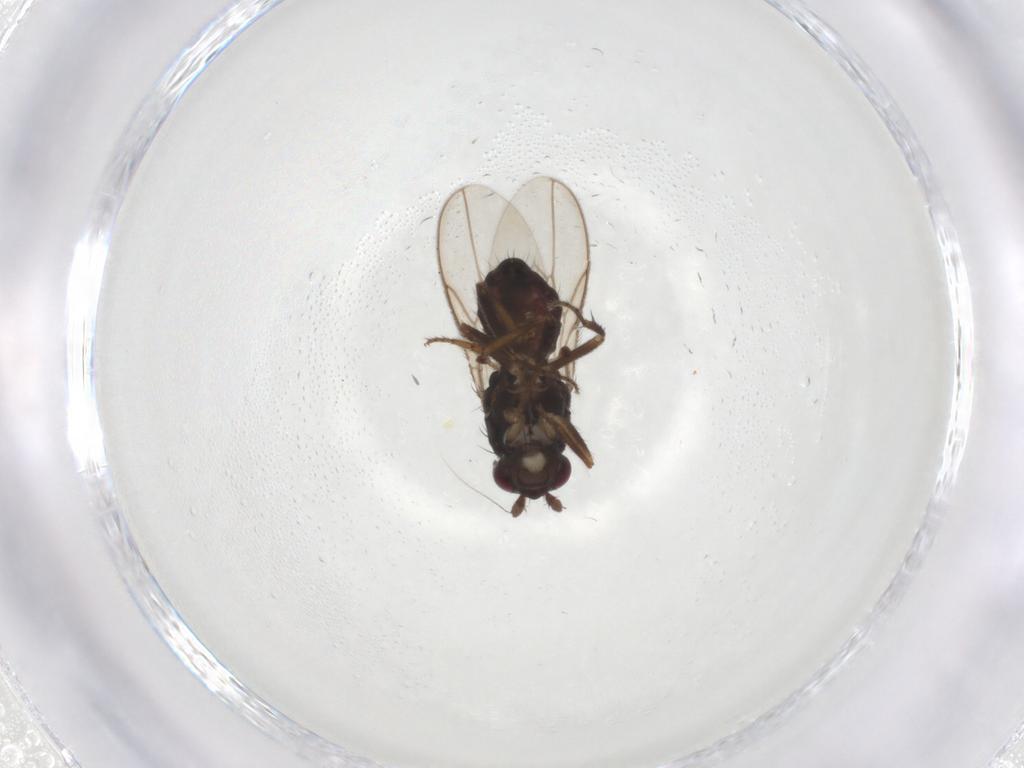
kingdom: Animalia
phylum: Arthropoda
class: Insecta
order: Diptera
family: Sphaeroceridae
